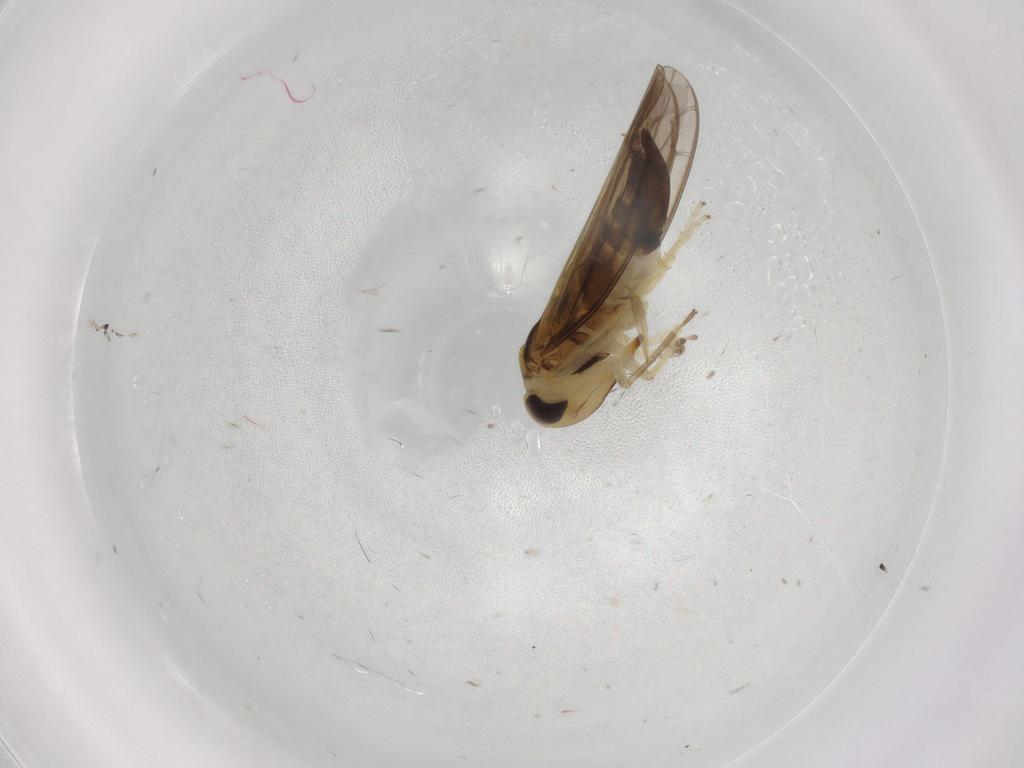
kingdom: Animalia
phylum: Arthropoda
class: Insecta
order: Hemiptera
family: Cicadellidae
